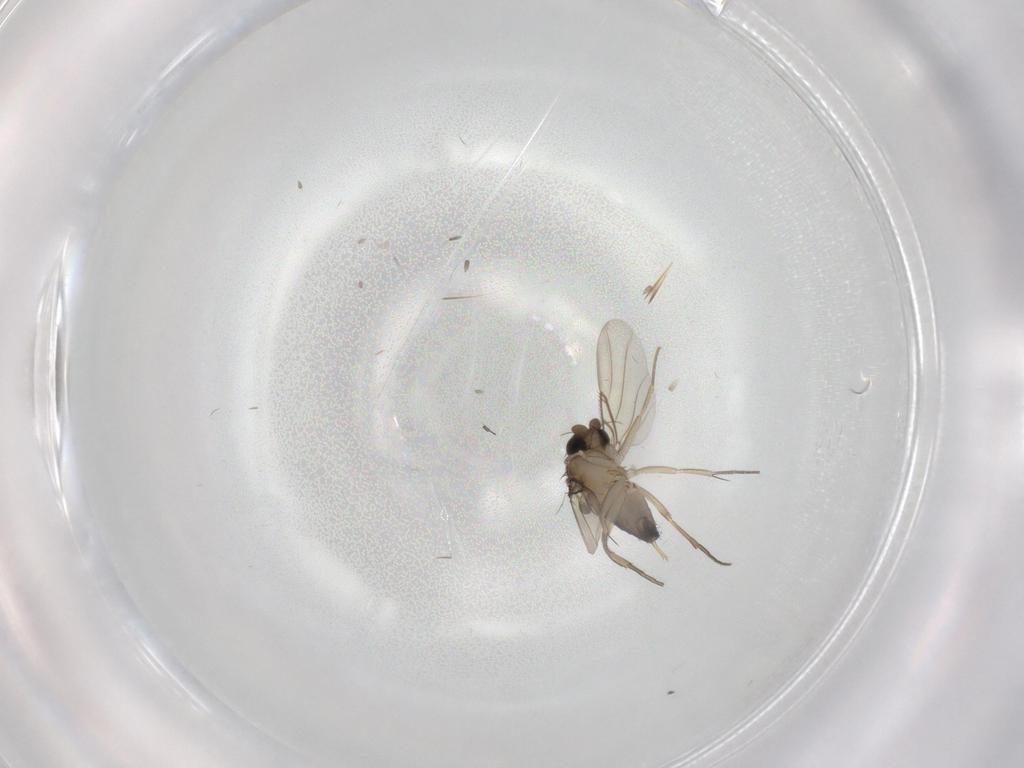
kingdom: Animalia
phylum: Arthropoda
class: Insecta
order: Diptera
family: Phoridae
